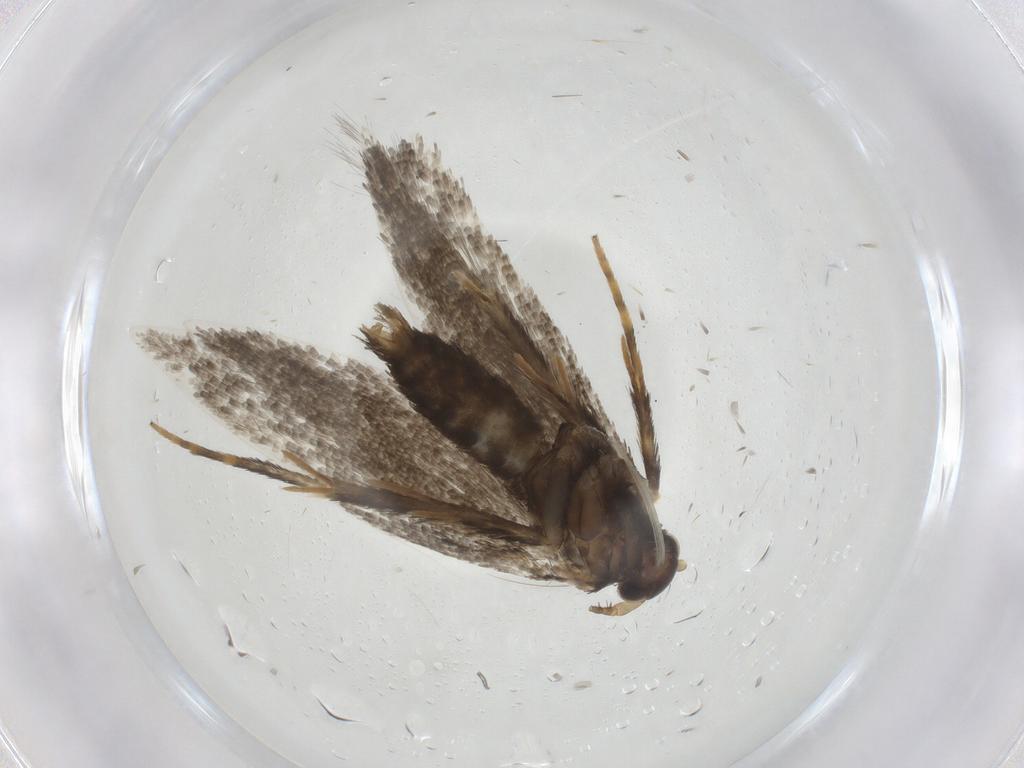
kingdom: Animalia
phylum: Arthropoda
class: Insecta
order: Lepidoptera
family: Erebidae
